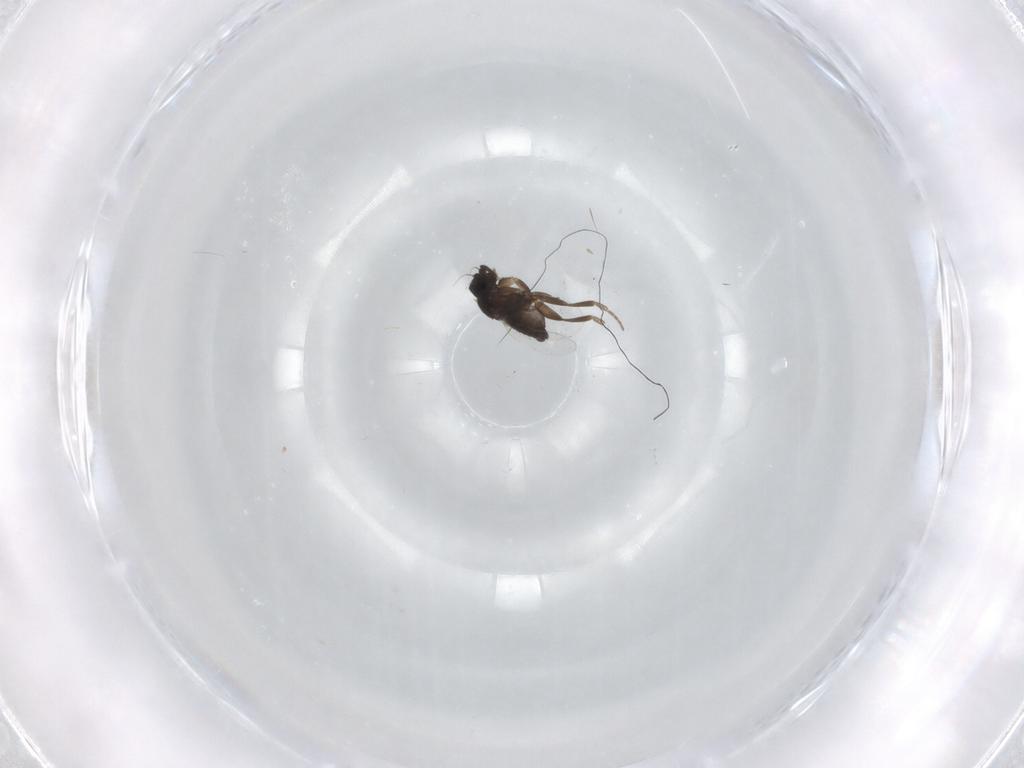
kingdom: Animalia
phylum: Arthropoda
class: Insecta
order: Diptera
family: Phoridae
